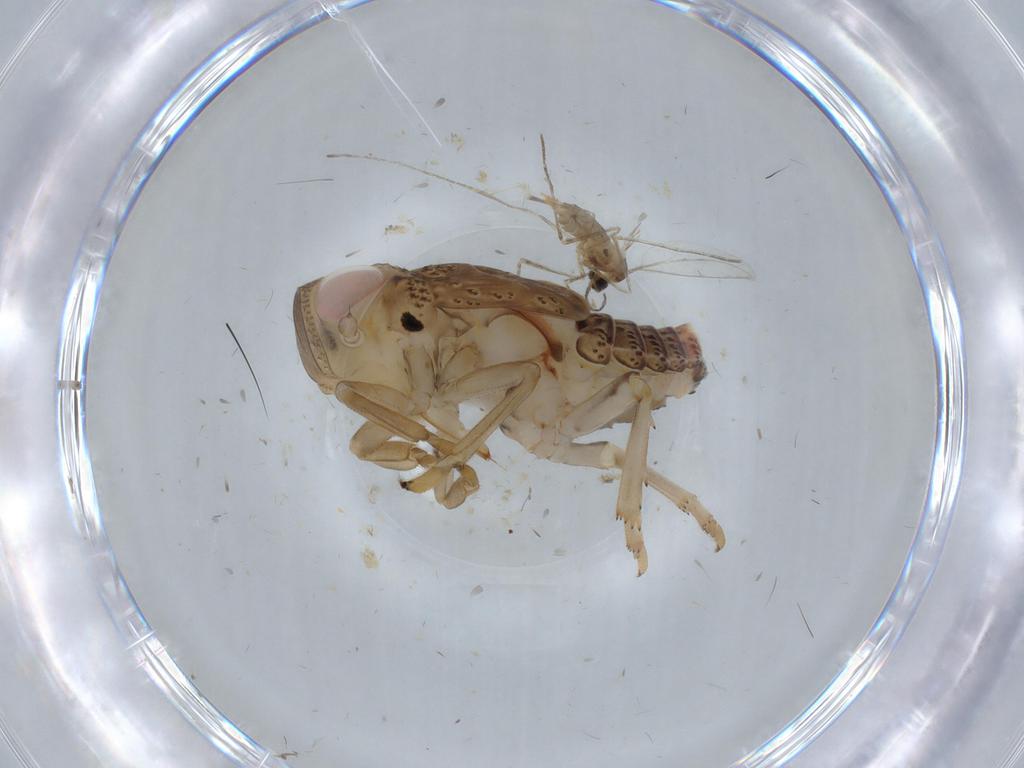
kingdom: Animalia
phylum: Arthropoda
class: Insecta
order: Diptera
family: Dolichopodidae
